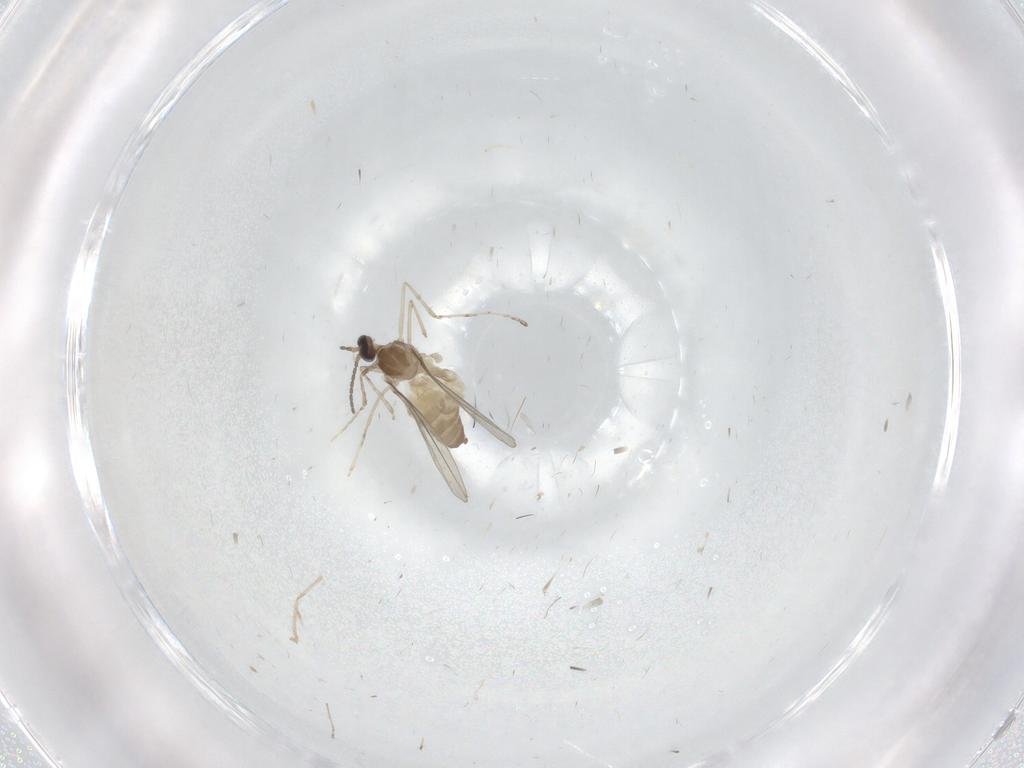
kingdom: Animalia
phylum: Arthropoda
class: Insecta
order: Diptera
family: Cecidomyiidae
